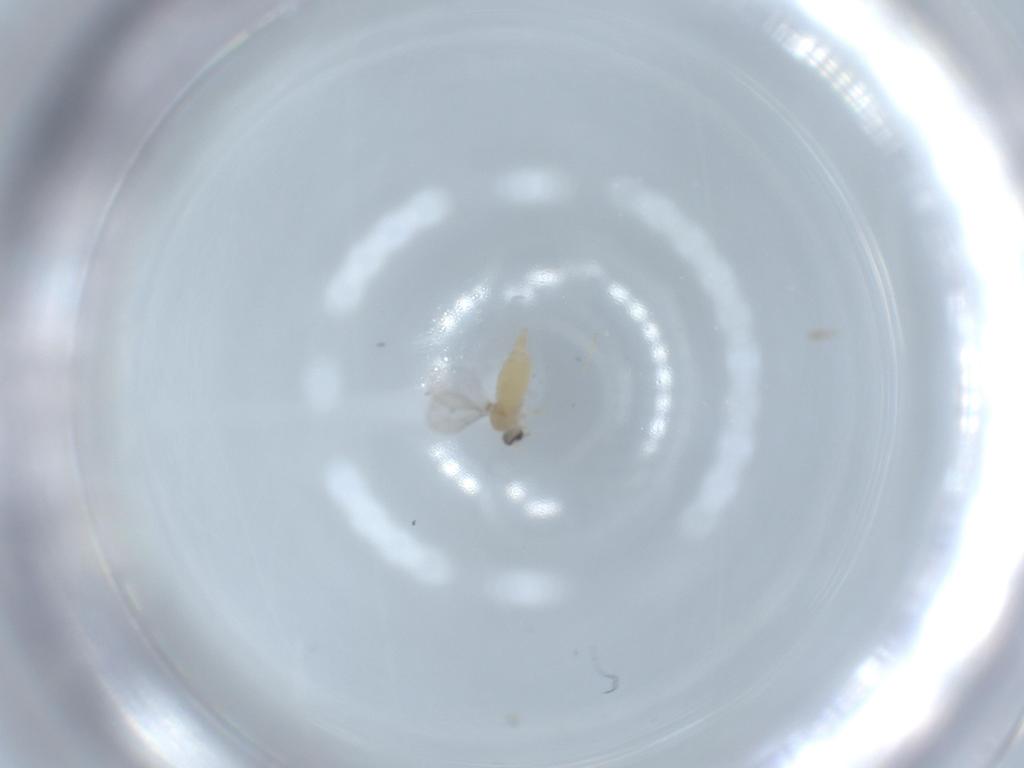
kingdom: Animalia
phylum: Arthropoda
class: Insecta
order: Diptera
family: Cecidomyiidae
